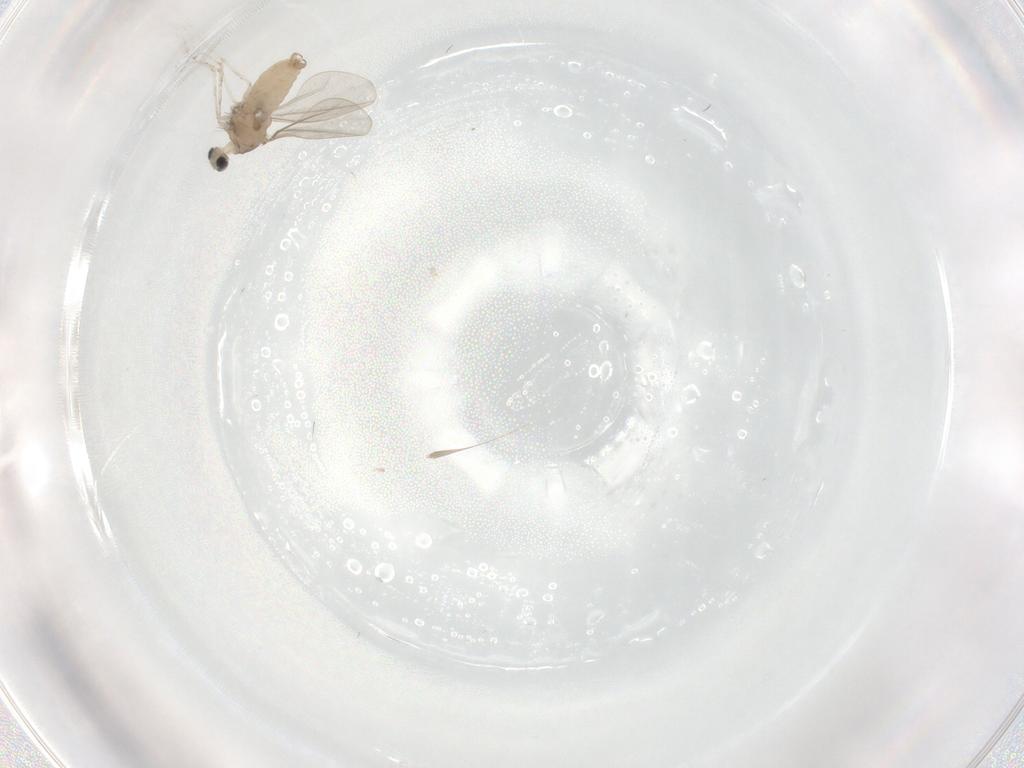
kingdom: Animalia
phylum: Arthropoda
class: Insecta
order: Diptera
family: Cecidomyiidae
